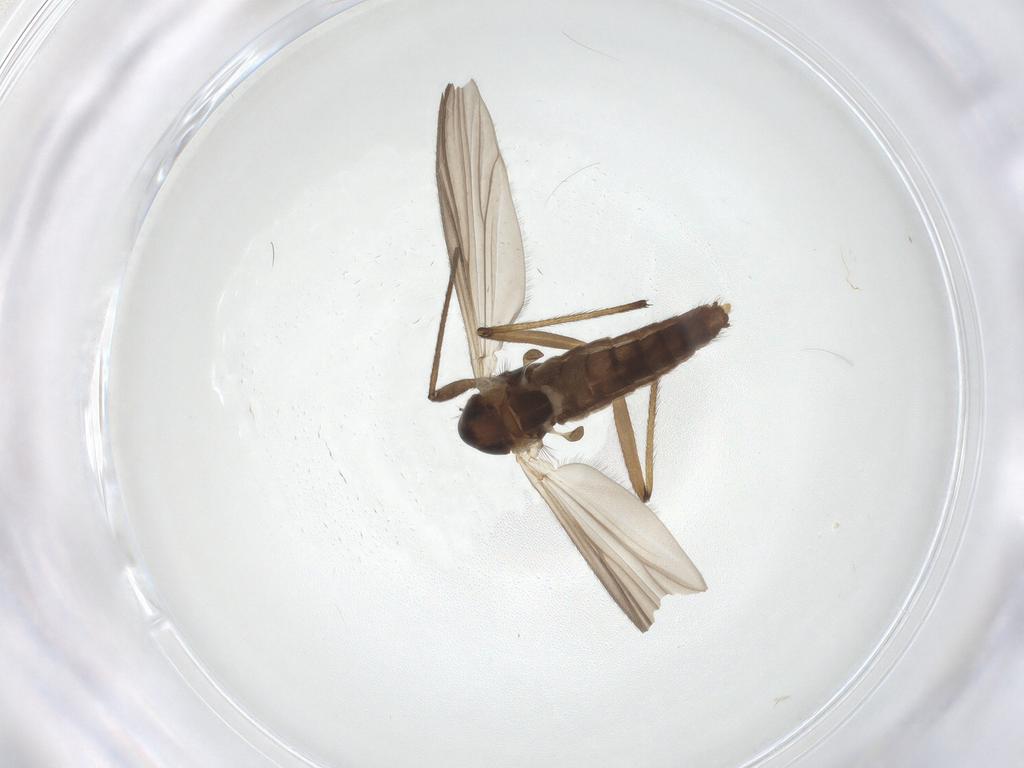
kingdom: Animalia
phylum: Arthropoda
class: Insecta
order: Diptera
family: Chironomidae
